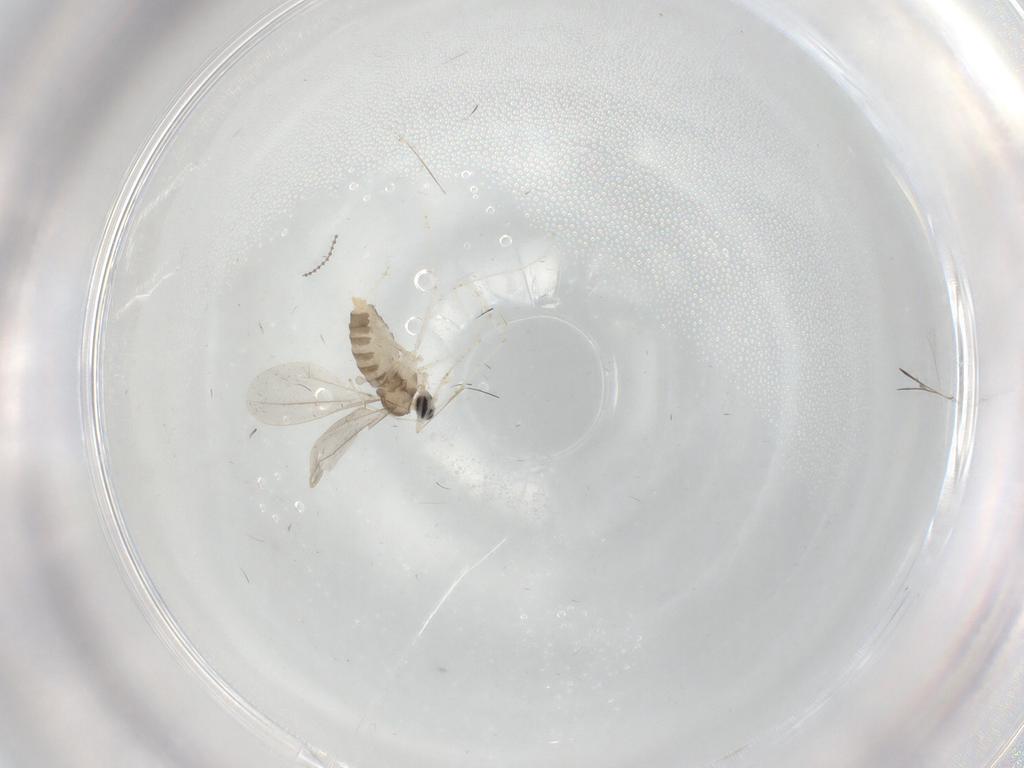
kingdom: Animalia
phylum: Arthropoda
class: Insecta
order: Diptera
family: Cecidomyiidae
